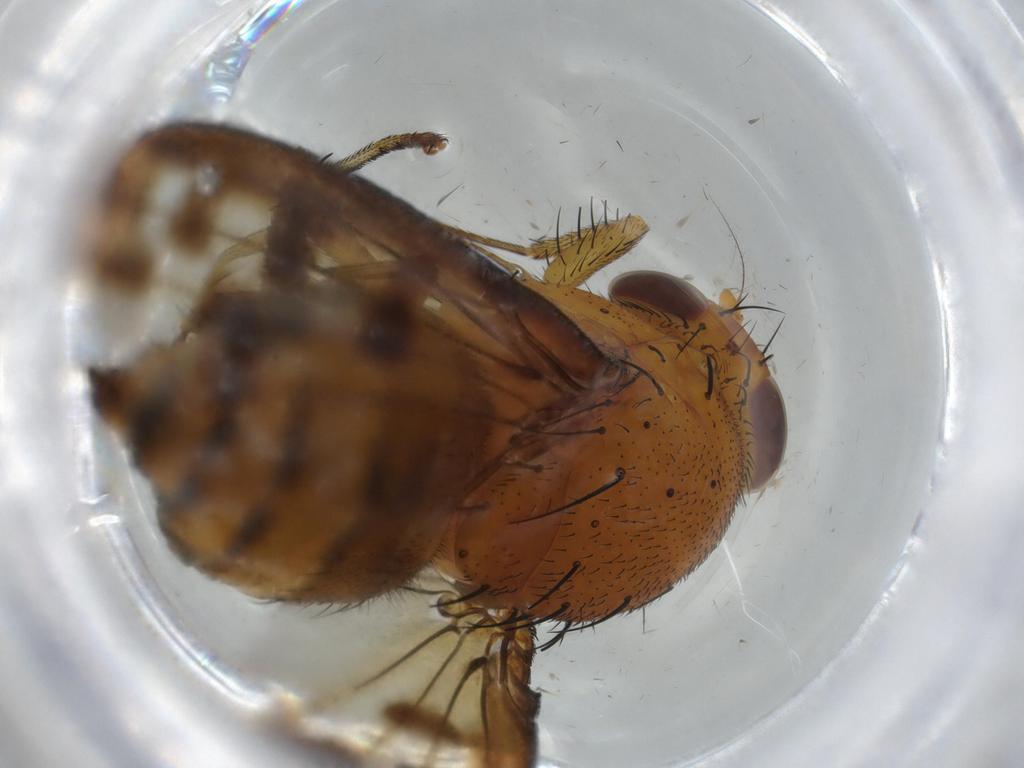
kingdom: Animalia
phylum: Arthropoda
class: Insecta
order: Diptera
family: Lauxaniidae
